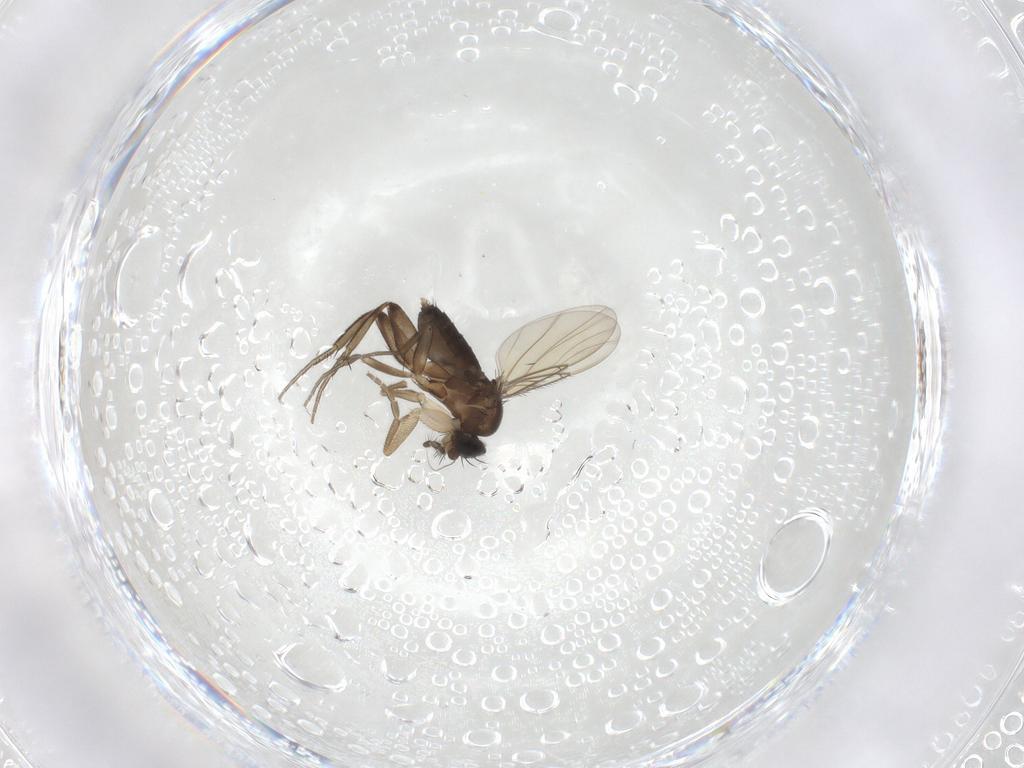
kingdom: Animalia
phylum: Arthropoda
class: Insecta
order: Diptera
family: Phoridae
